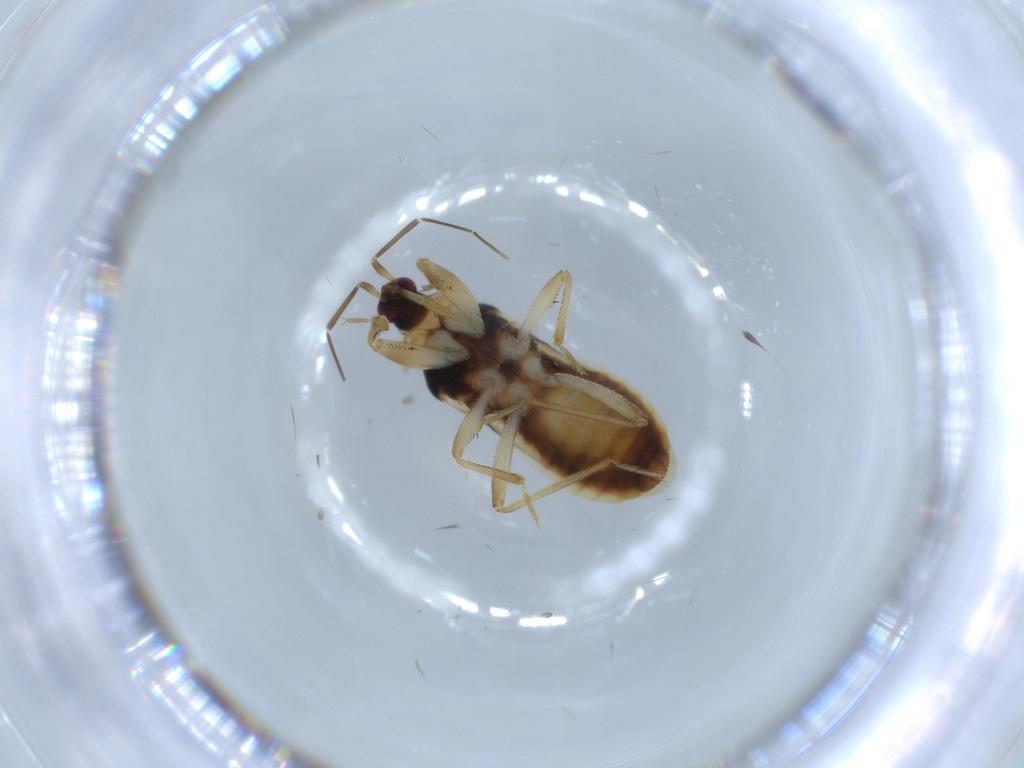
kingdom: Animalia
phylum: Arthropoda
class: Insecta
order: Hemiptera
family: Nabidae
